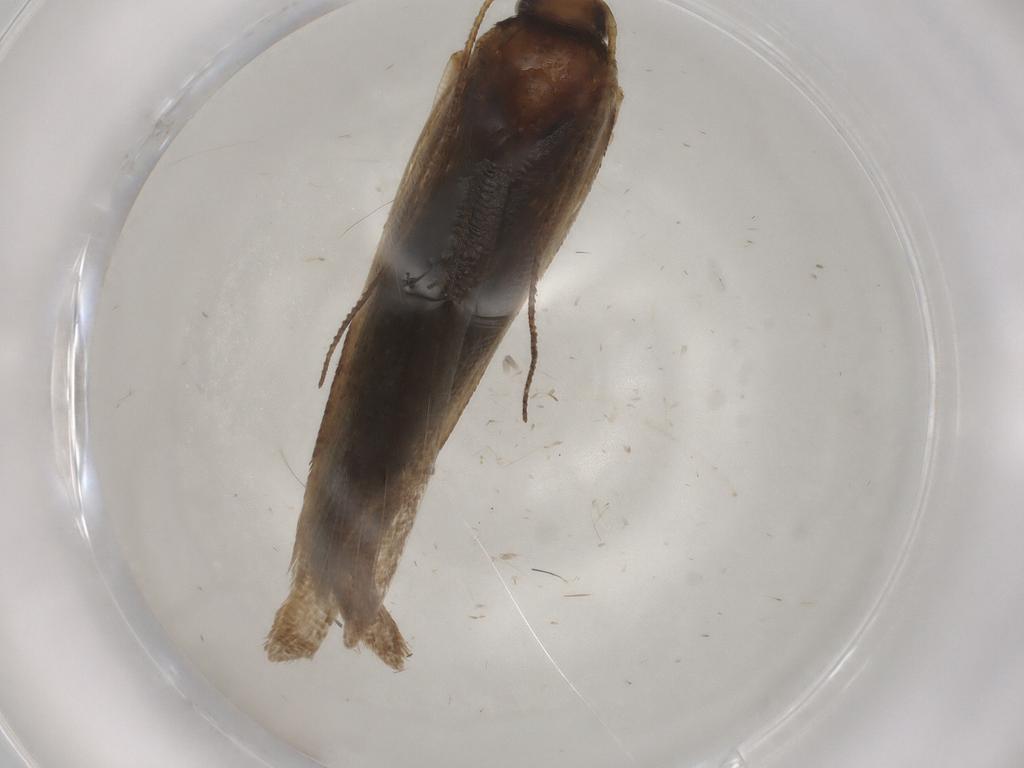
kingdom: Animalia
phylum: Arthropoda
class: Insecta
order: Lepidoptera
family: Gelechiidae
